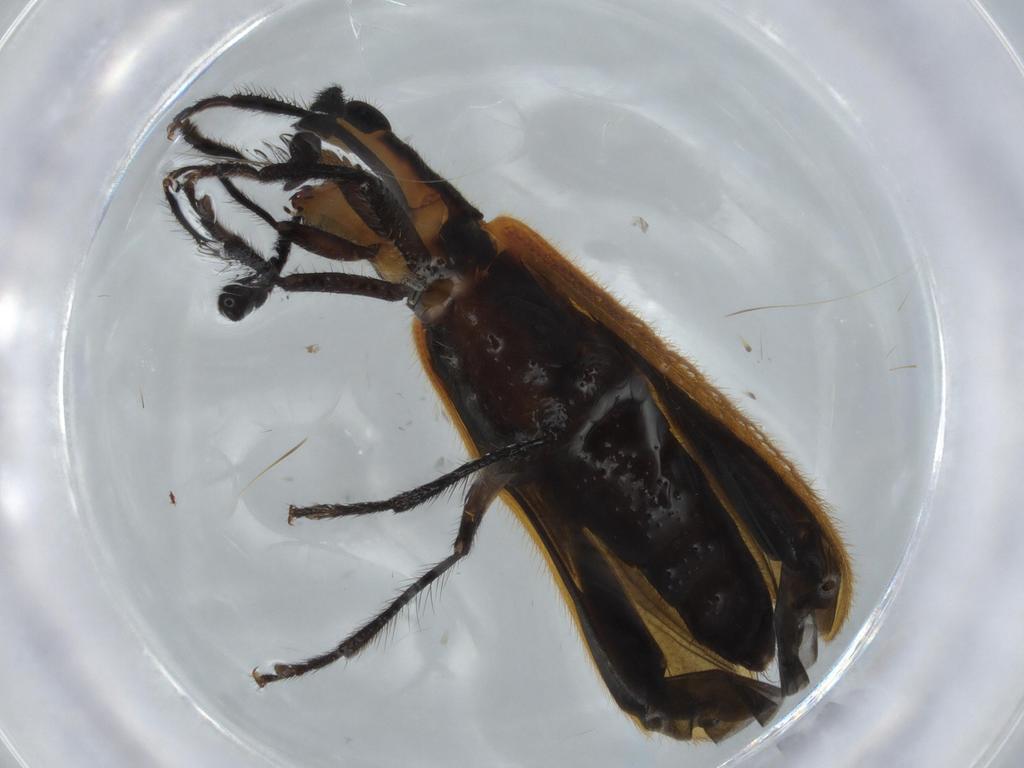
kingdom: Animalia
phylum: Arthropoda
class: Insecta
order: Coleoptera
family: Cleridae
